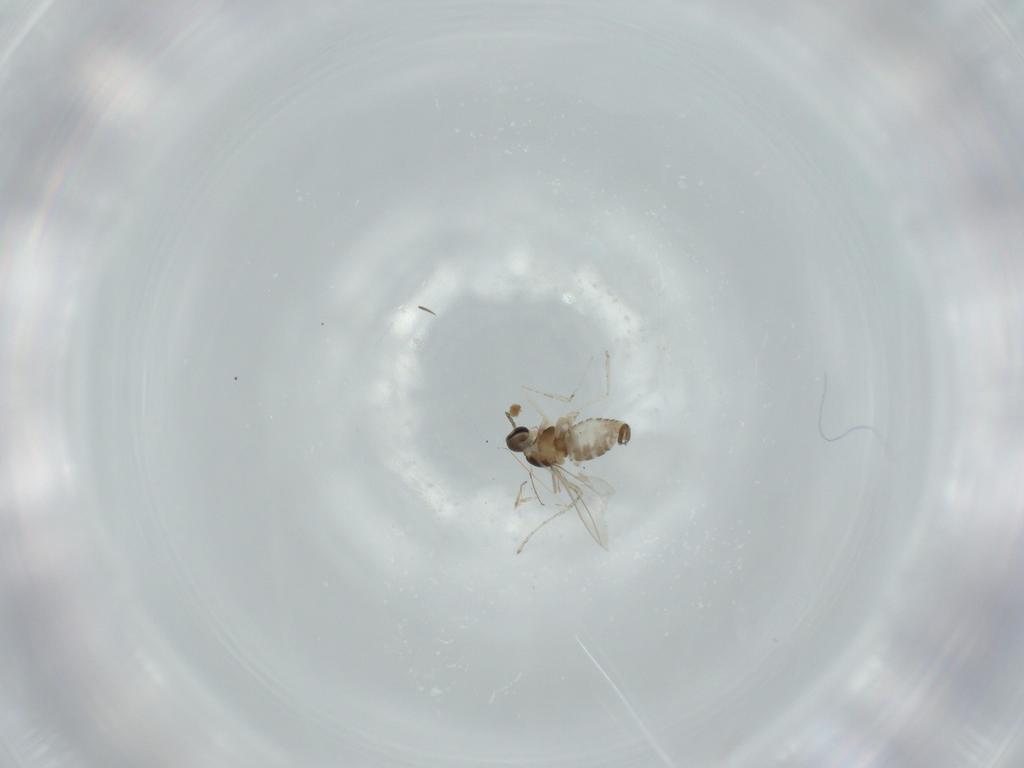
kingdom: Animalia
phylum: Arthropoda
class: Insecta
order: Diptera
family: Cecidomyiidae
